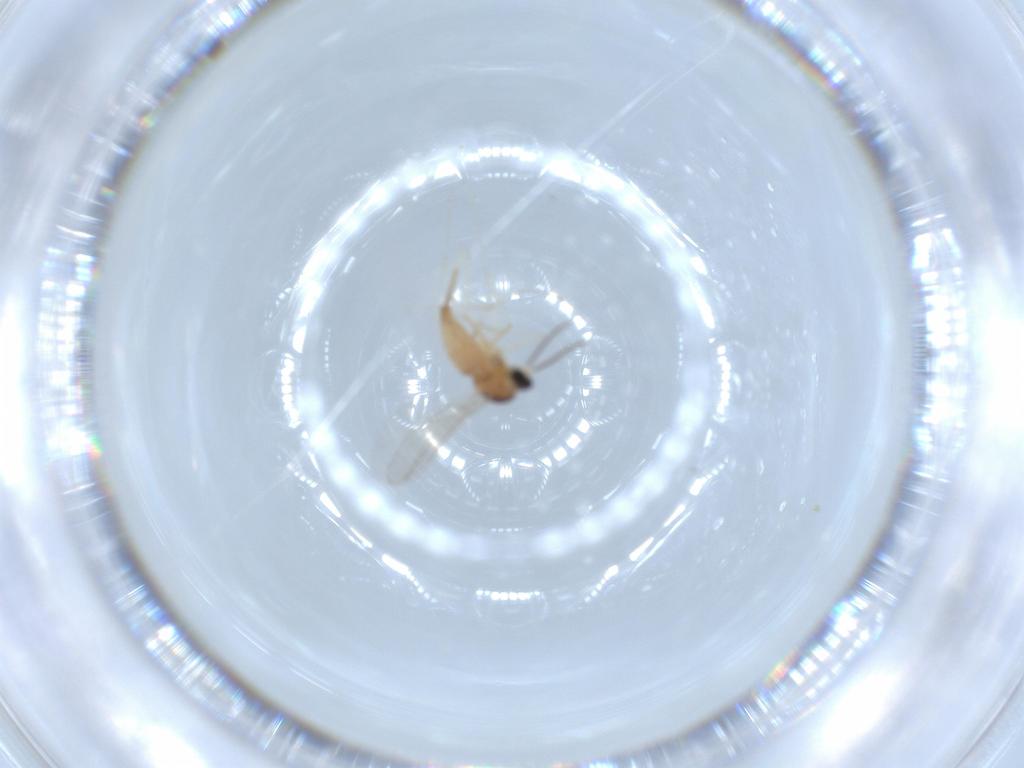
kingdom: Animalia
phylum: Arthropoda
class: Insecta
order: Diptera
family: Cecidomyiidae
